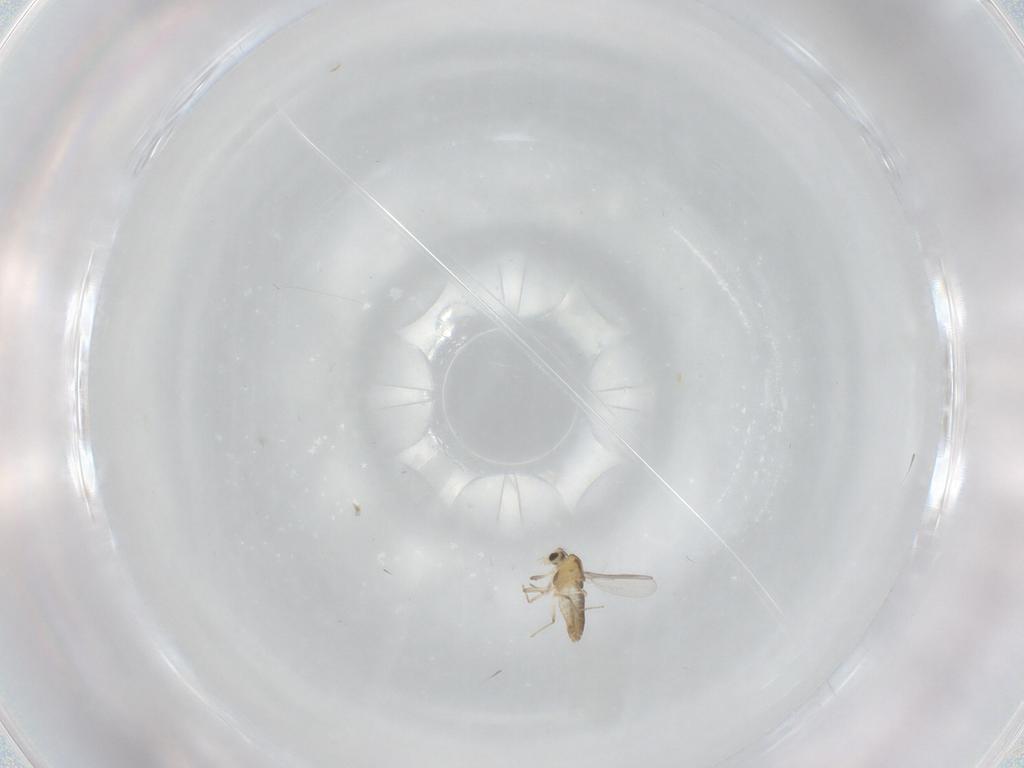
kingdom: Animalia
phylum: Arthropoda
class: Insecta
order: Diptera
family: Chironomidae
